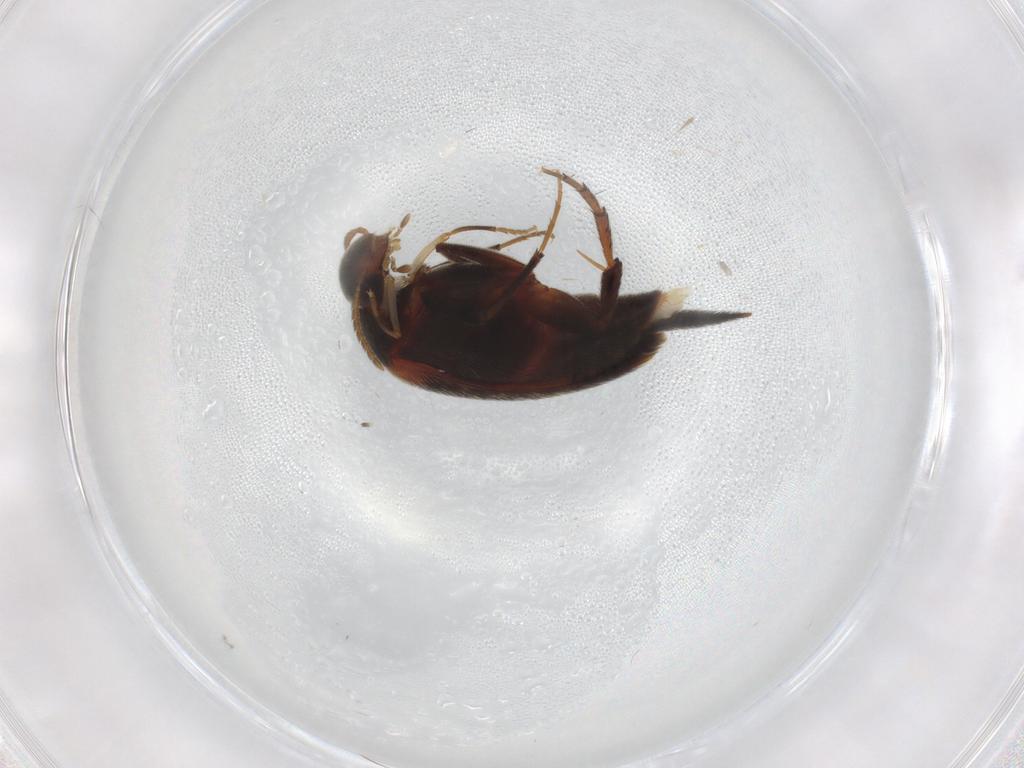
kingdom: Animalia
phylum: Arthropoda
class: Insecta
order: Coleoptera
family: Mordellidae
